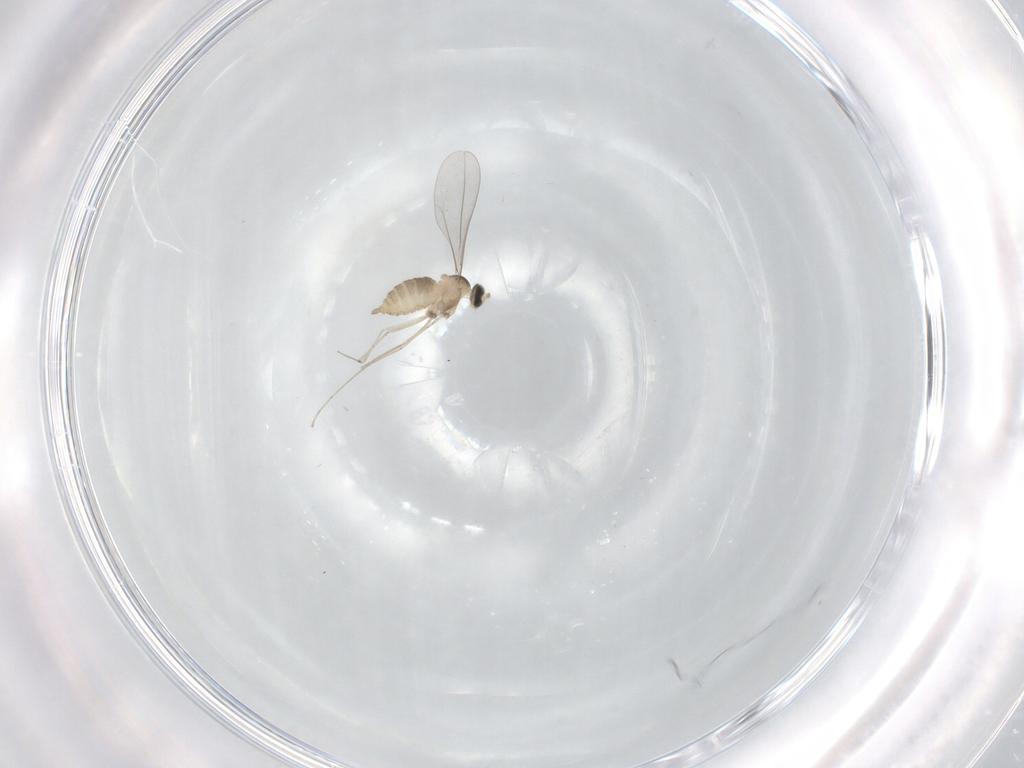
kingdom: Animalia
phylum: Arthropoda
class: Insecta
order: Diptera
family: Cecidomyiidae
